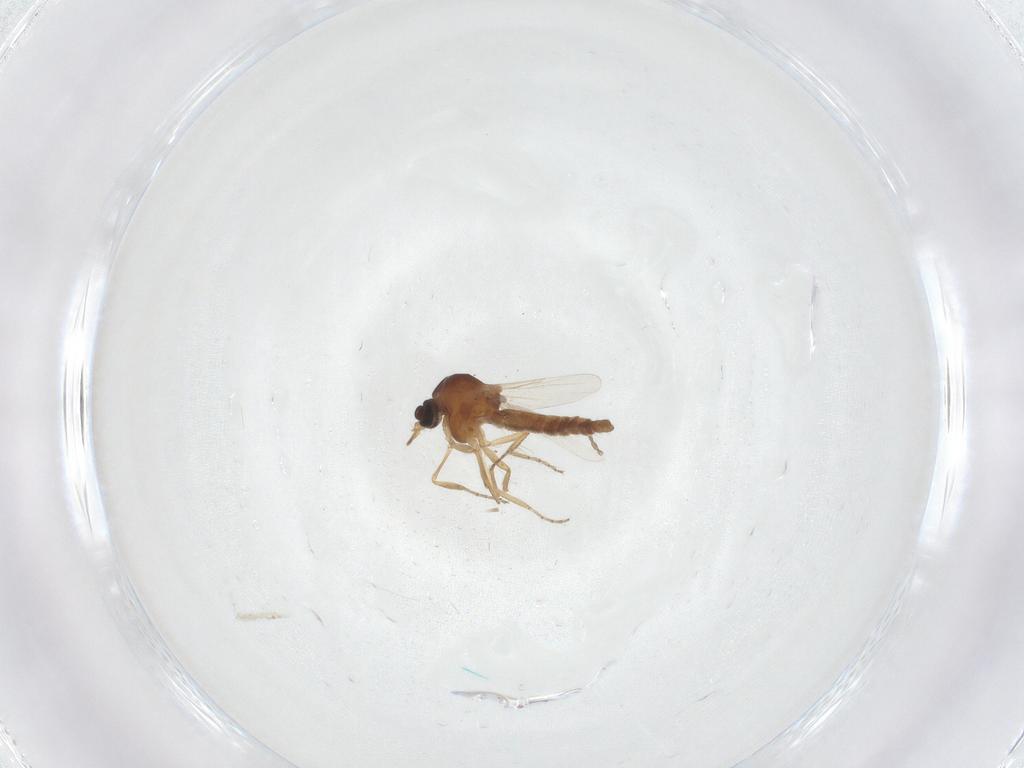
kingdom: Animalia
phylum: Arthropoda
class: Insecta
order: Diptera
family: Ceratopogonidae
